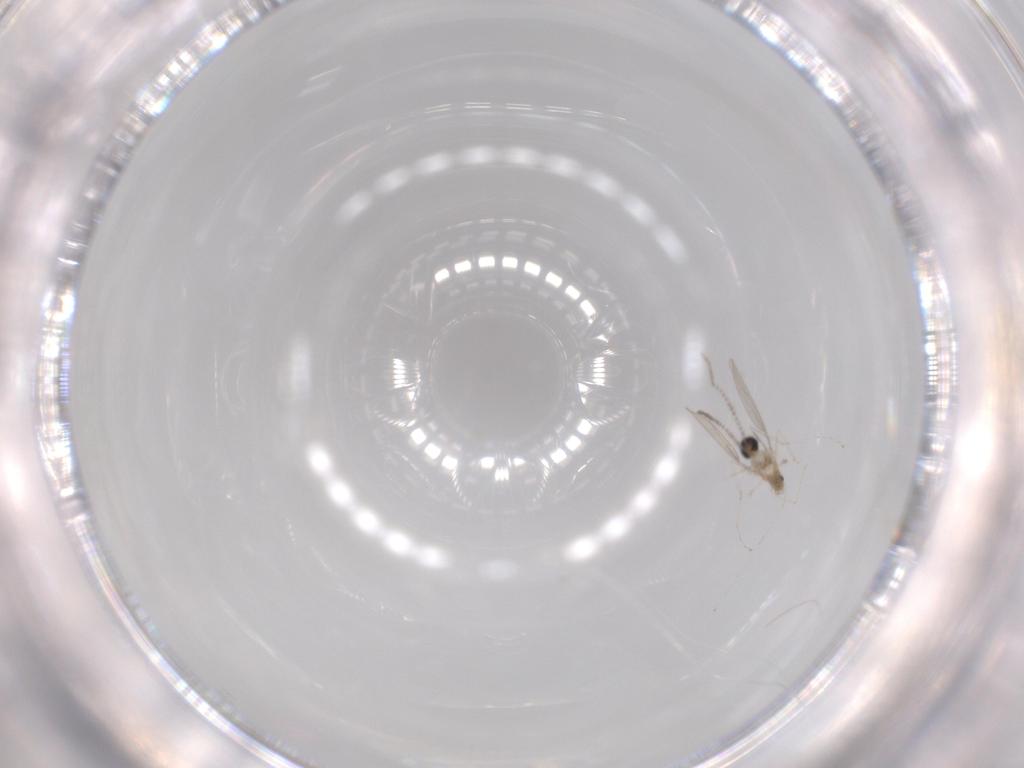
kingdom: Animalia
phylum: Arthropoda
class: Insecta
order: Diptera
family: Cecidomyiidae
